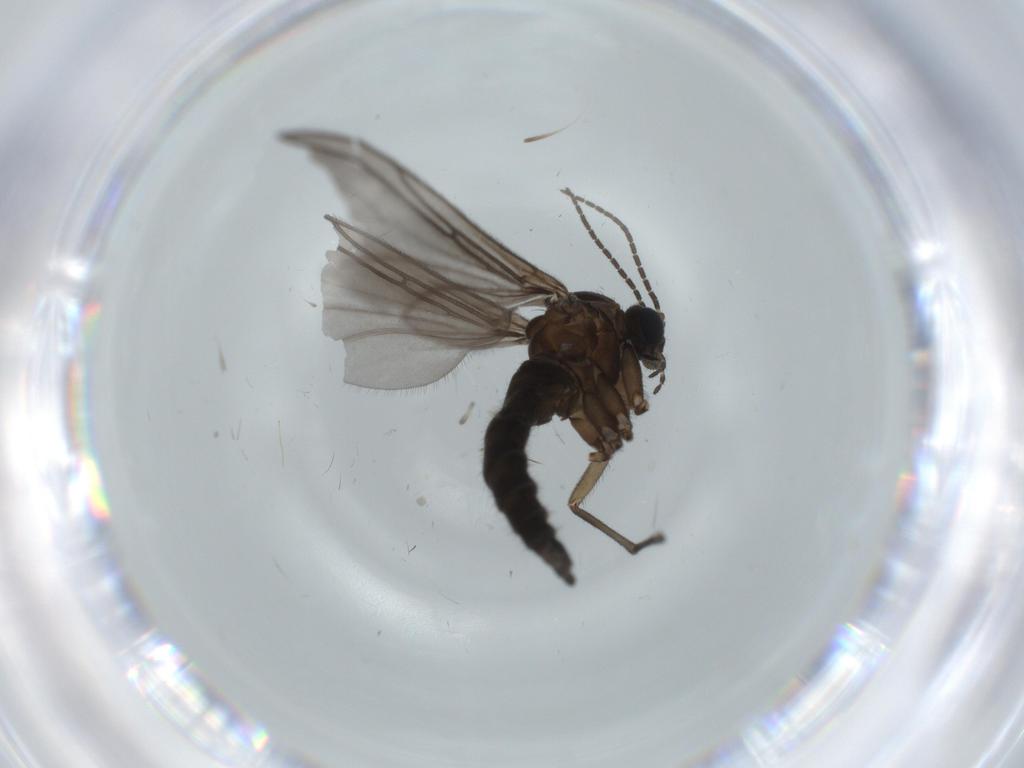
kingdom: Animalia
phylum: Arthropoda
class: Insecta
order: Diptera
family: Sciaridae
